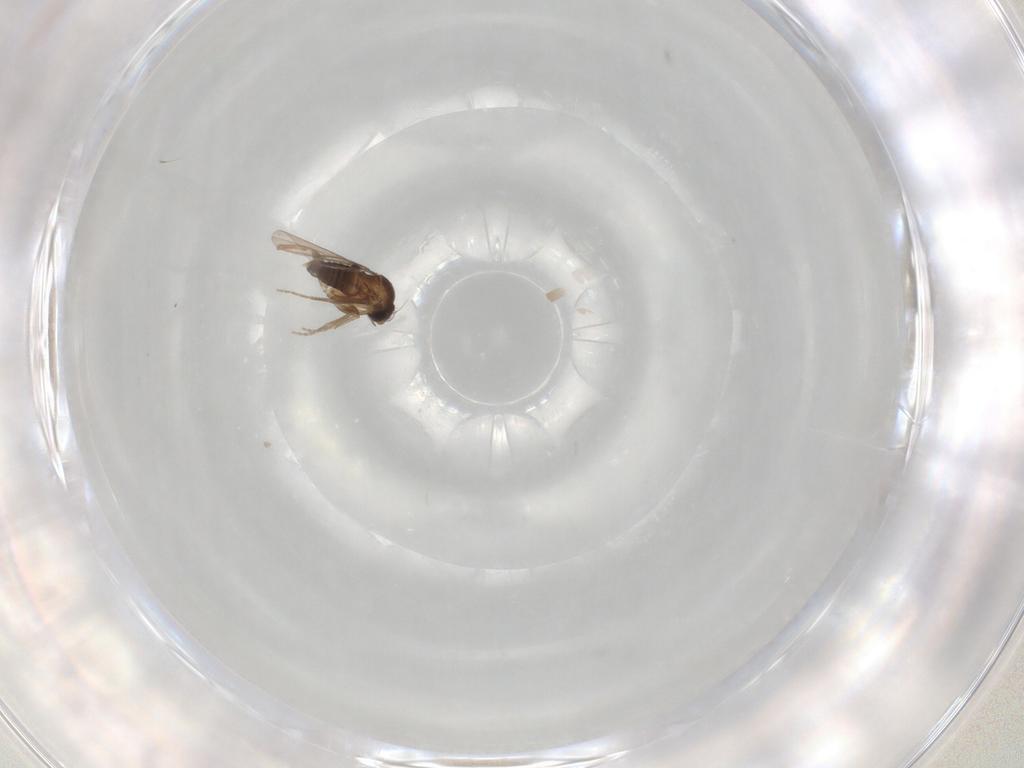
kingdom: Animalia
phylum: Arthropoda
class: Insecta
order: Diptera
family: Phoridae
